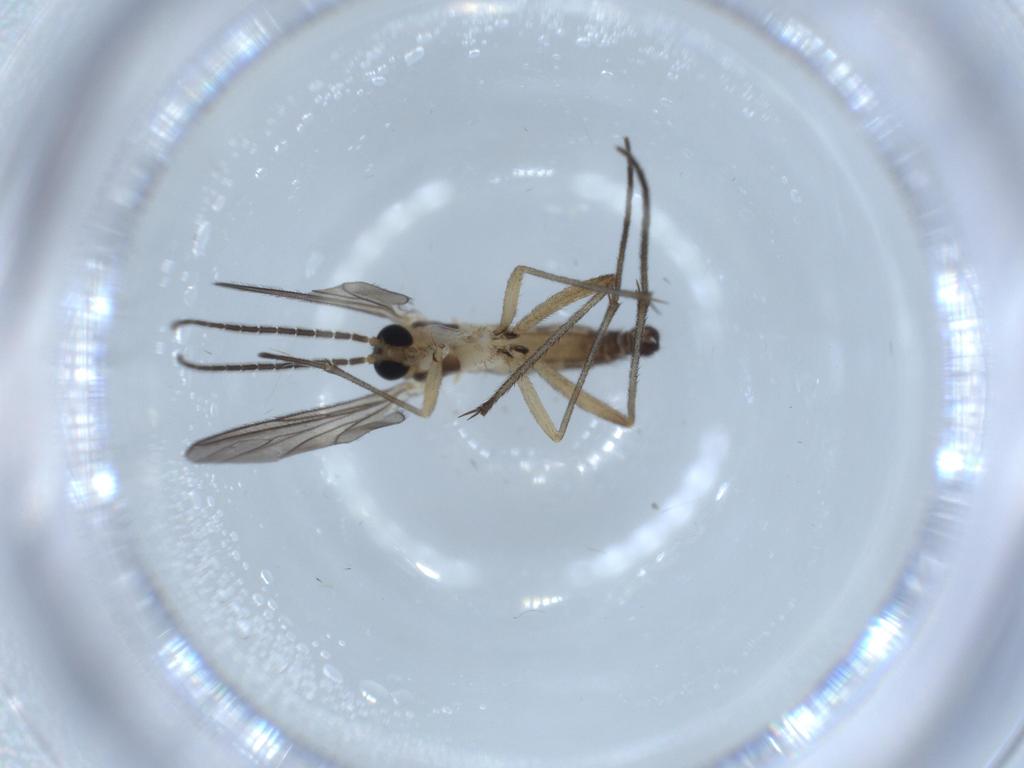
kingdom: Animalia
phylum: Arthropoda
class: Insecta
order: Diptera
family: Sciaridae
